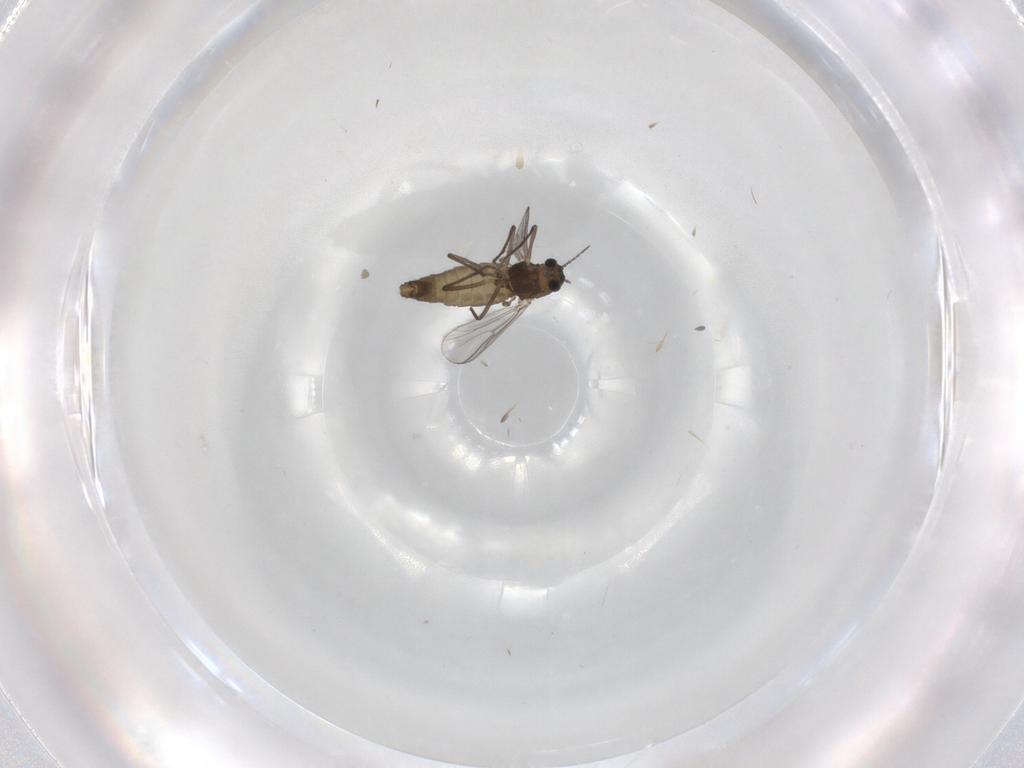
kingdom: Animalia
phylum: Arthropoda
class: Insecta
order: Diptera
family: Chironomidae
